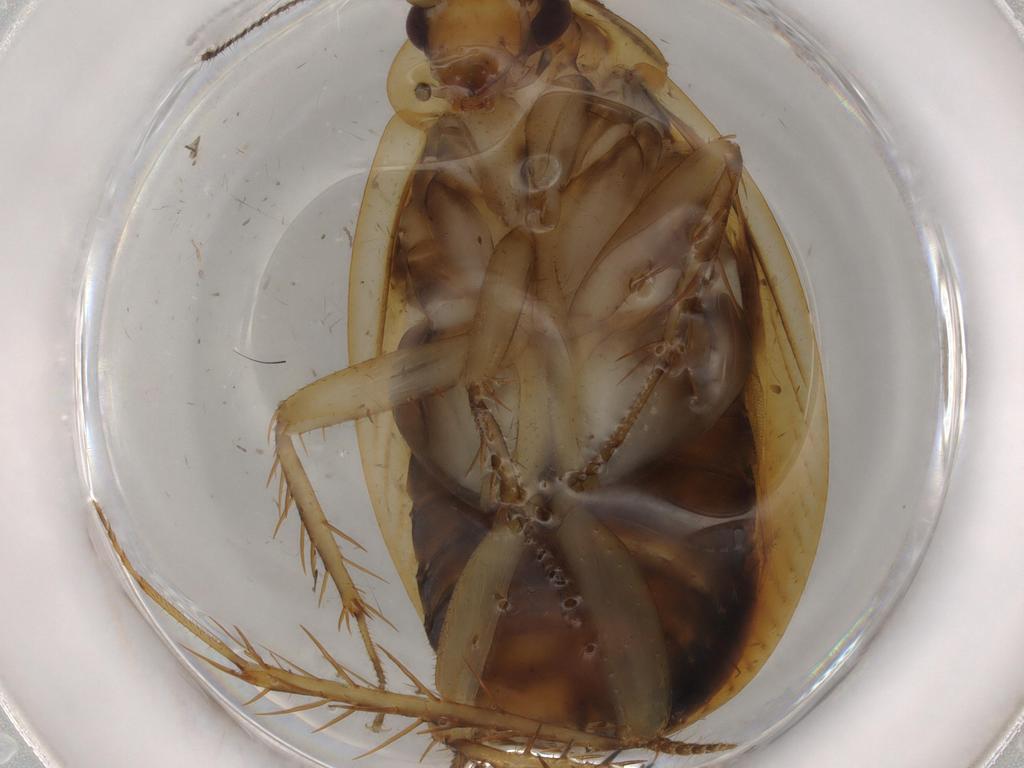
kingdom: Animalia
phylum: Arthropoda
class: Insecta
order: Blattodea
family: Ectobiidae
